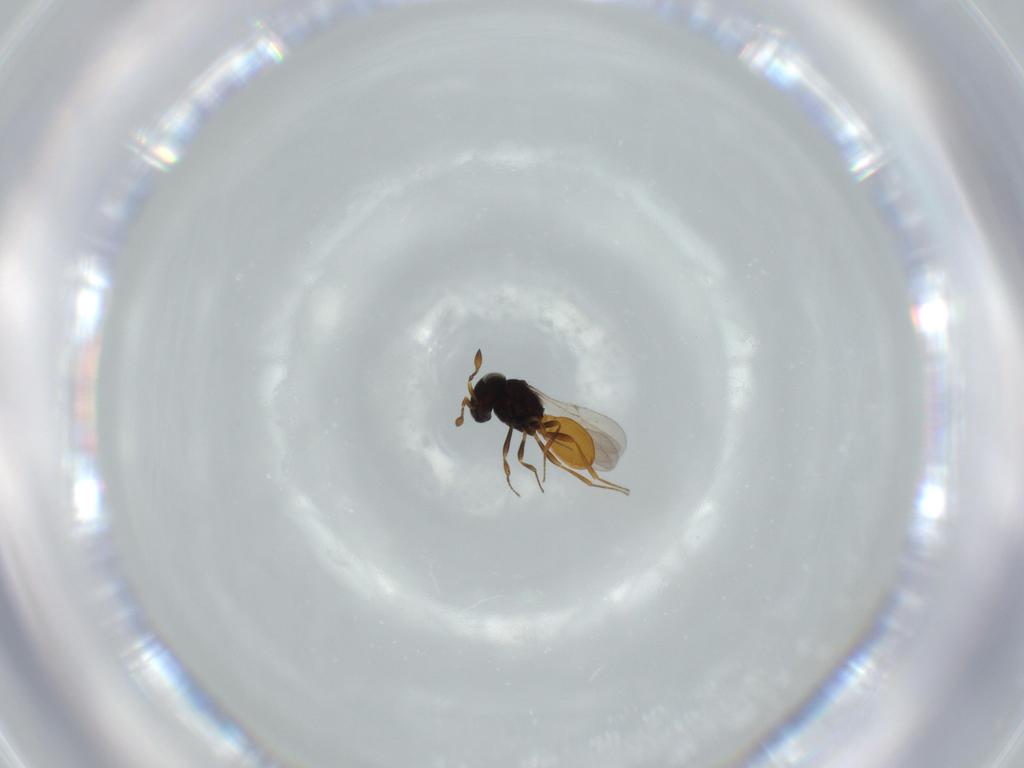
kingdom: Animalia
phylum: Arthropoda
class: Insecta
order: Hymenoptera
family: Scelionidae
